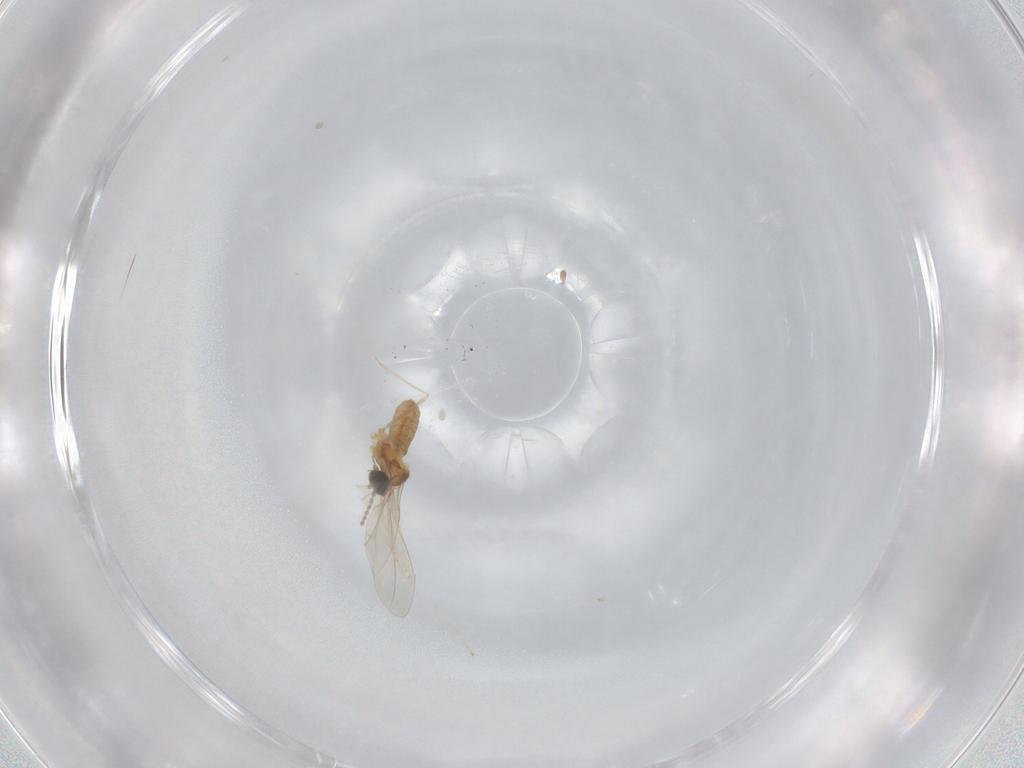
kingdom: Animalia
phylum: Arthropoda
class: Insecta
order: Diptera
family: Cecidomyiidae
